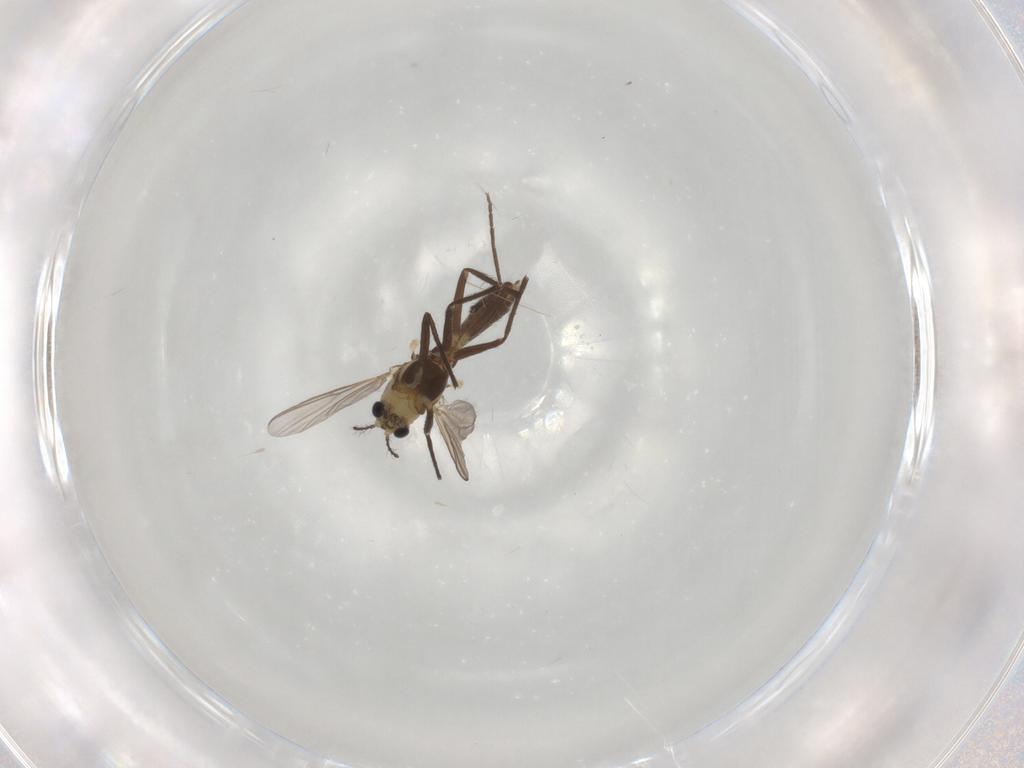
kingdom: Animalia
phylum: Arthropoda
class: Insecta
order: Diptera
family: Chironomidae
